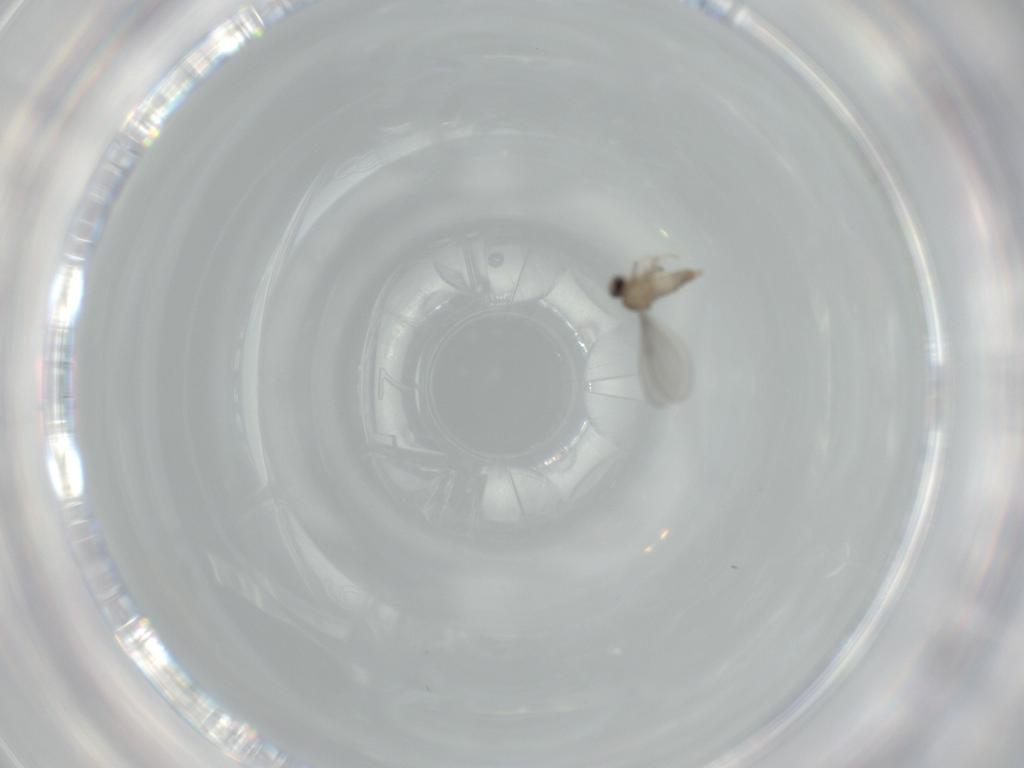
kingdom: Animalia
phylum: Arthropoda
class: Insecta
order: Diptera
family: Cecidomyiidae
